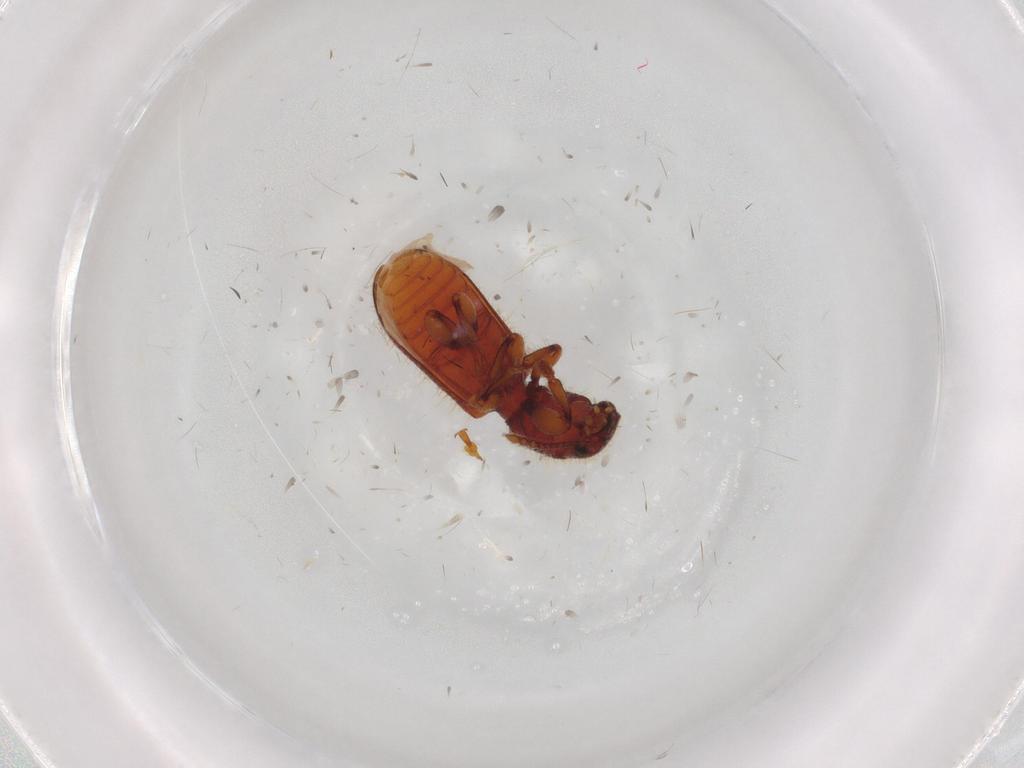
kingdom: Animalia
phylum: Arthropoda
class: Insecta
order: Coleoptera
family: Thanerocleridae
